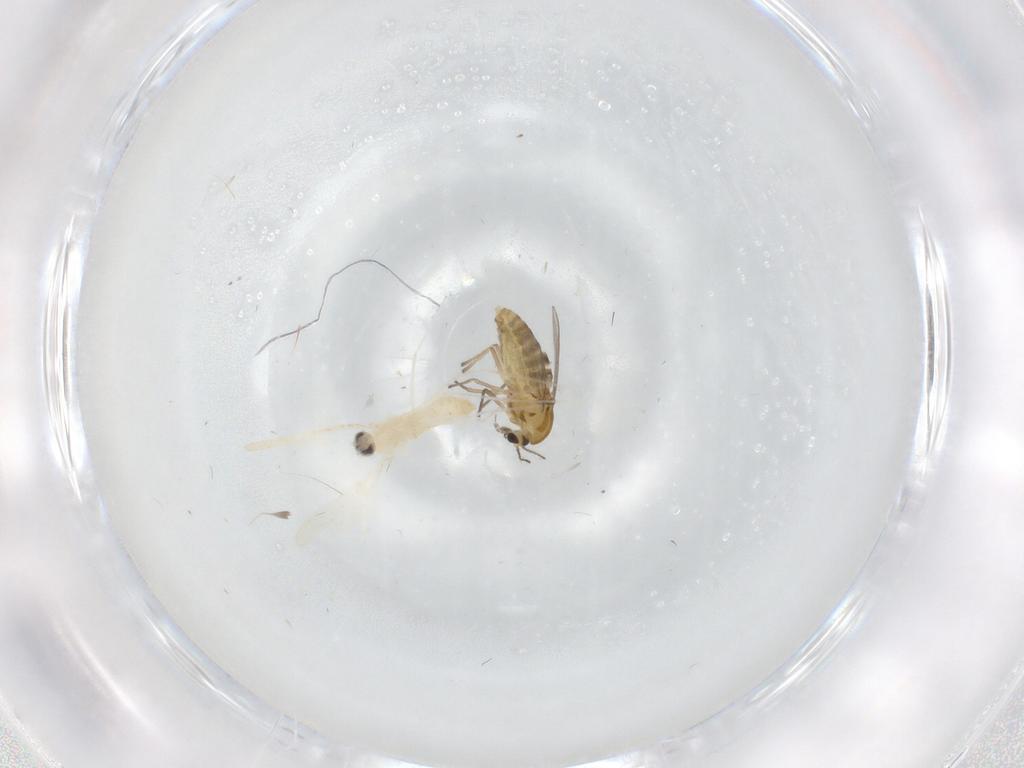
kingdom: Animalia
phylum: Arthropoda
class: Insecta
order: Diptera
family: Cecidomyiidae
